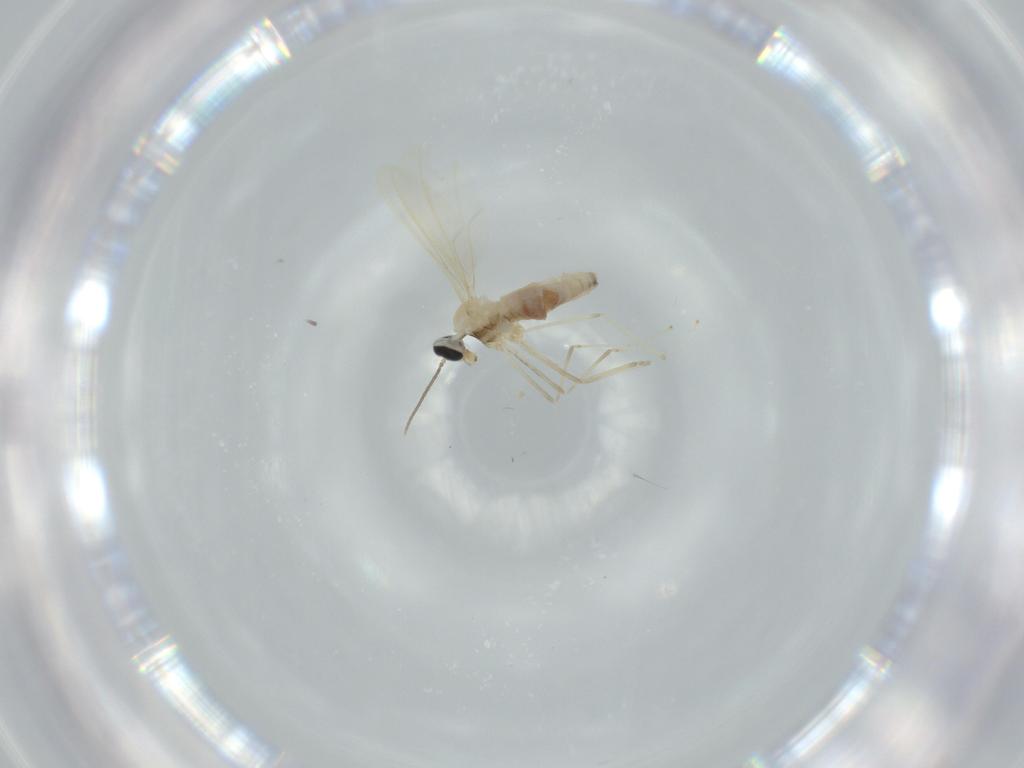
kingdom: Animalia
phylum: Arthropoda
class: Insecta
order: Diptera
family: Cecidomyiidae
